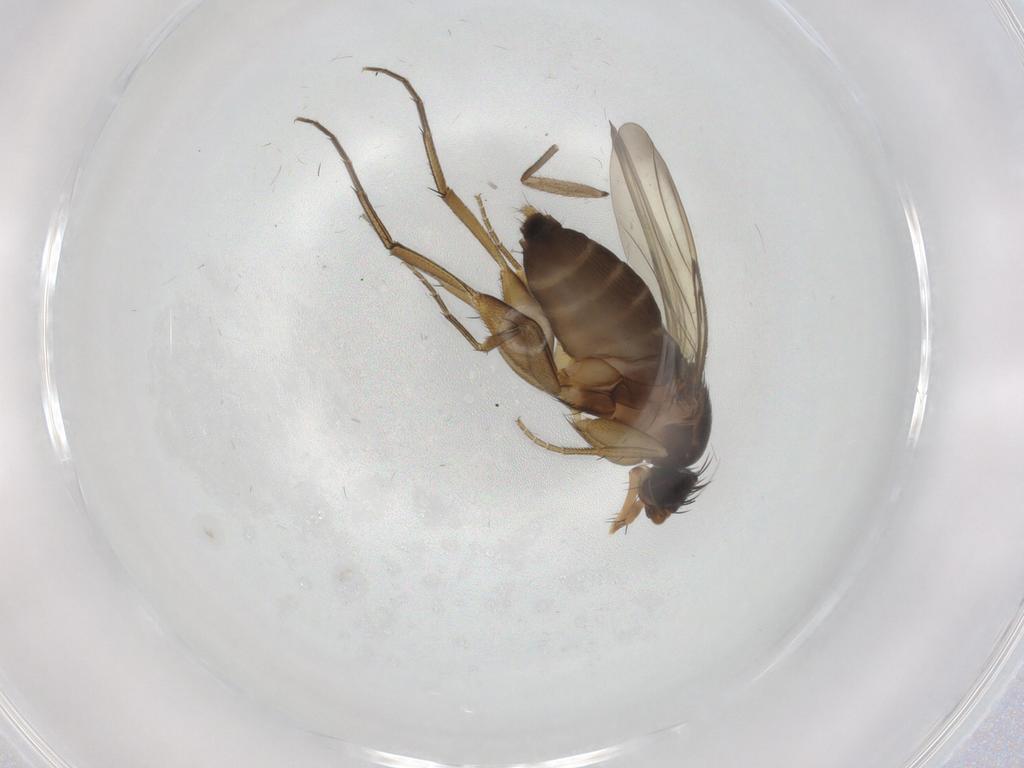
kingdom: Animalia
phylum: Arthropoda
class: Insecta
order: Diptera
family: Phoridae
